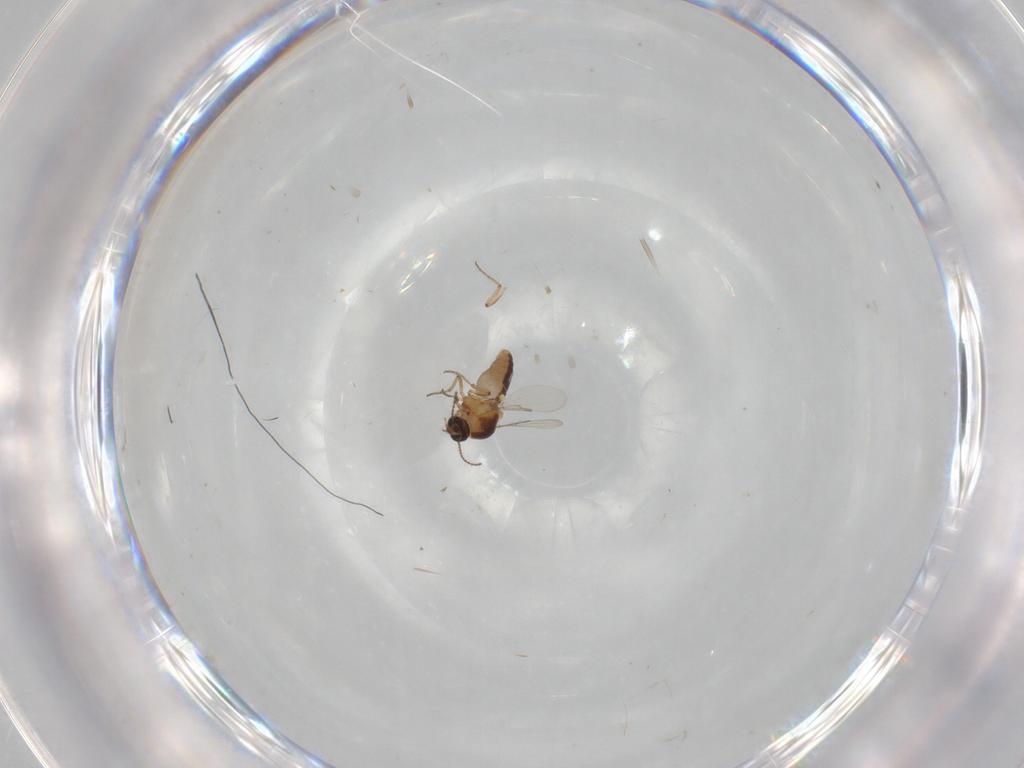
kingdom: Animalia
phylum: Arthropoda
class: Insecta
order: Diptera
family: Ceratopogonidae
